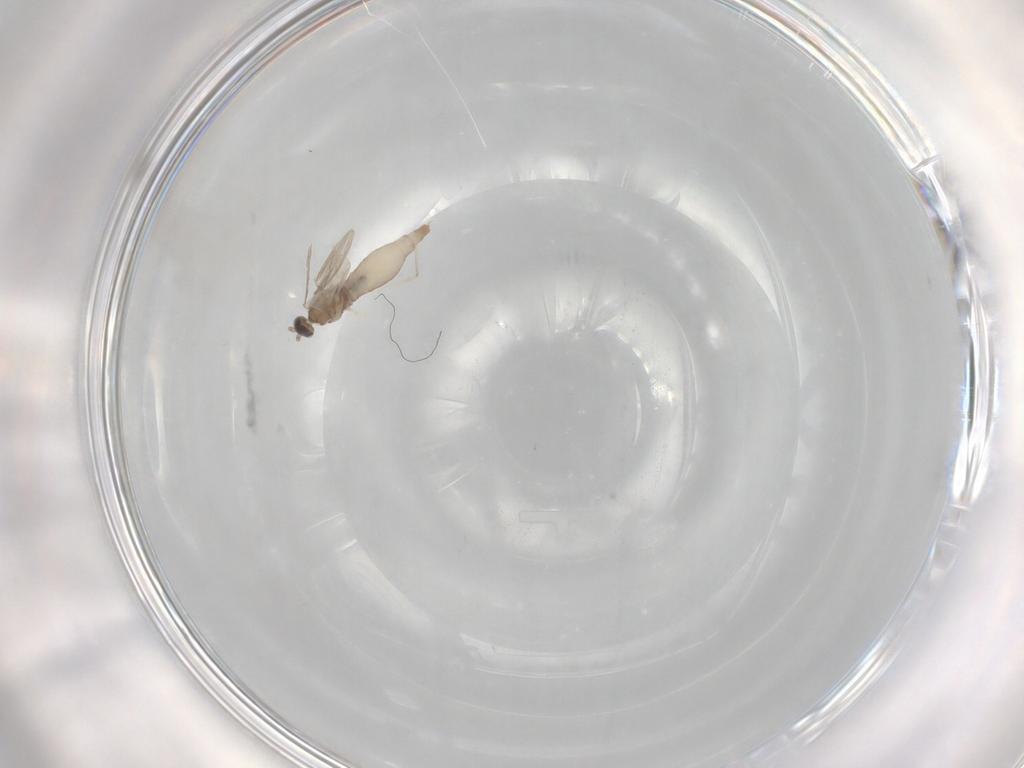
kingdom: Animalia
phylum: Arthropoda
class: Insecta
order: Diptera
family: Cecidomyiidae
